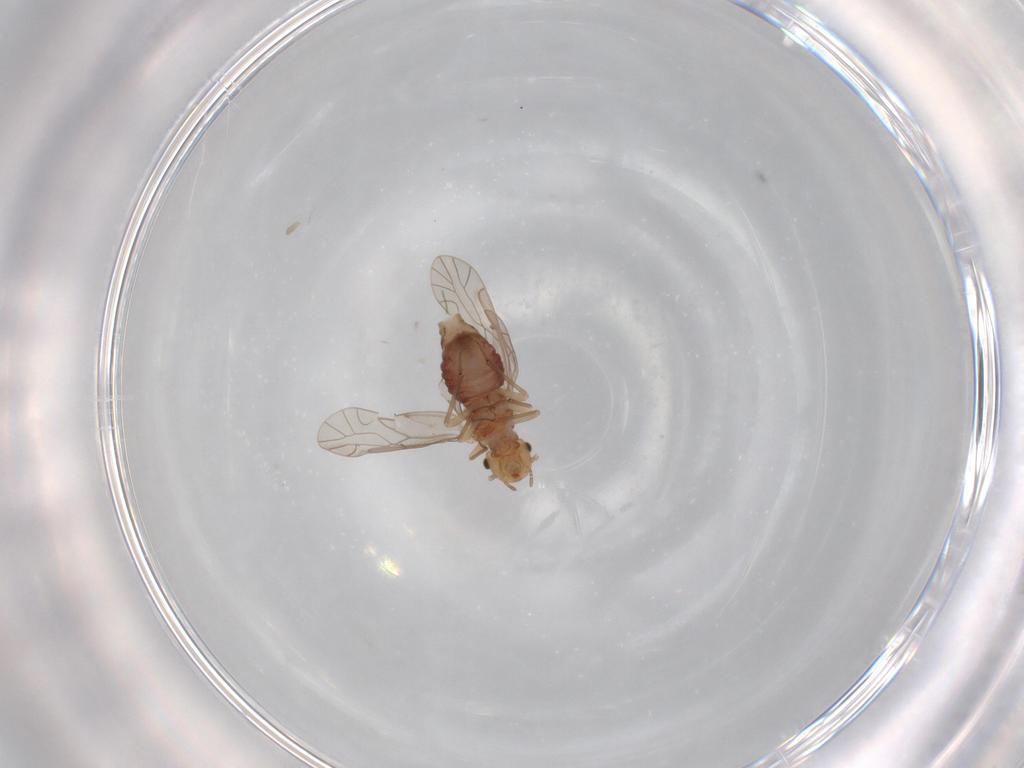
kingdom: Animalia
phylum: Arthropoda
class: Insecta
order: Psocodea
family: Lachesillidae
